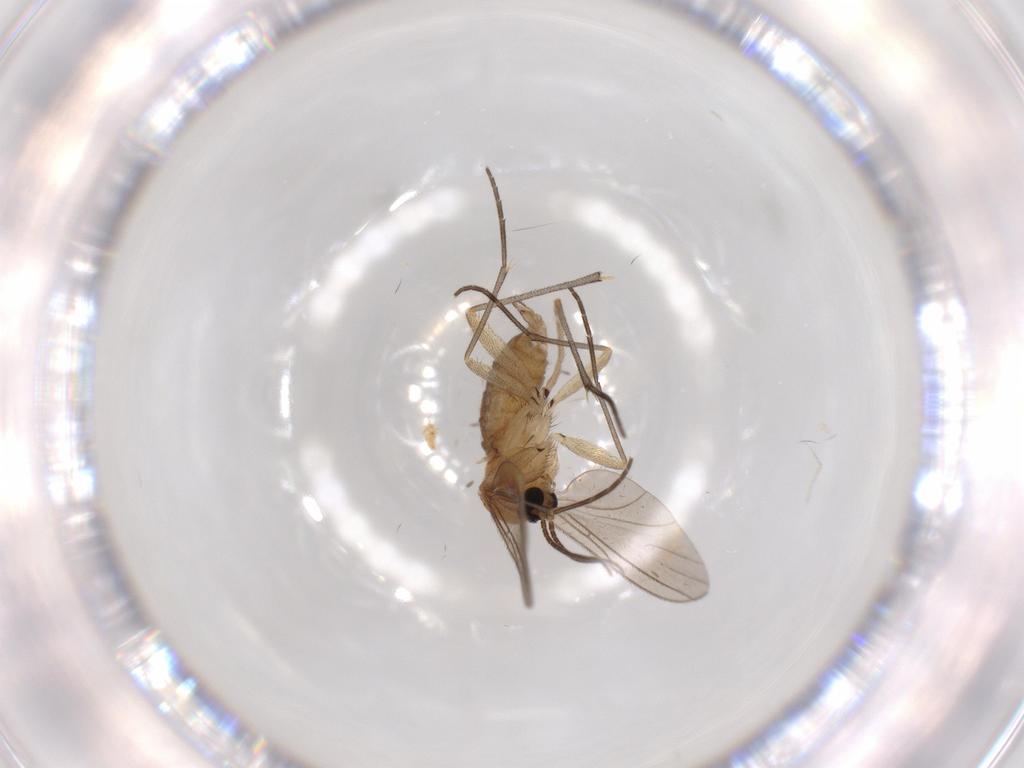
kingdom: Animalia
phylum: Arthropoda
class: Insecta
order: Diptera
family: Sciaridae
